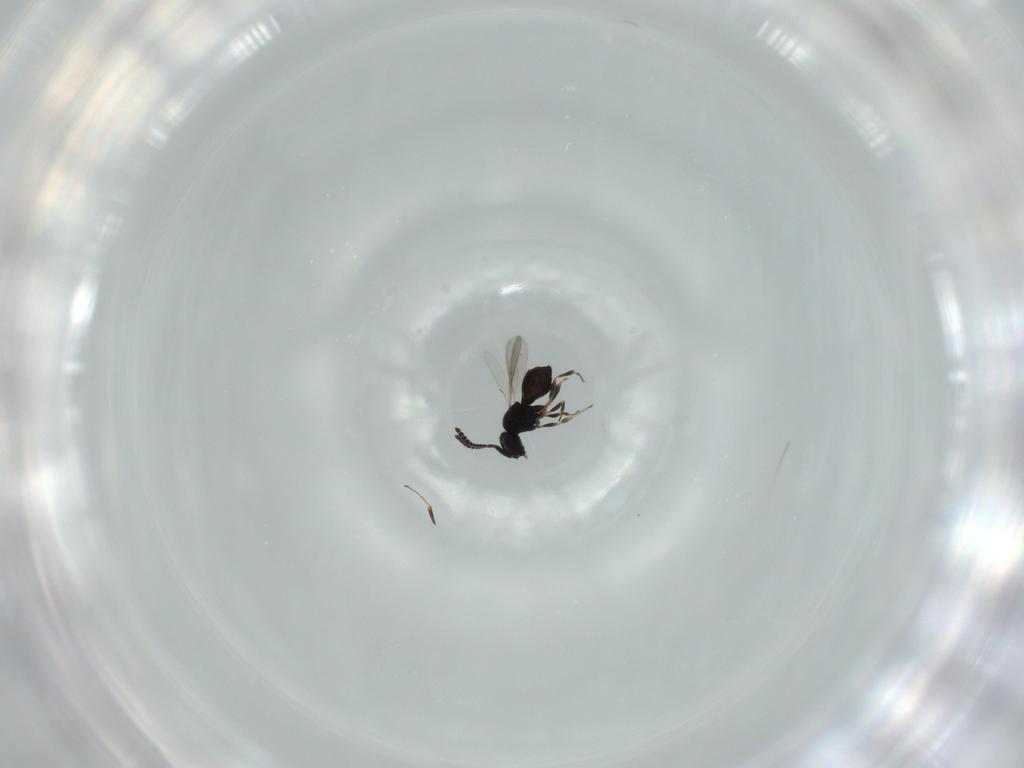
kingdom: Animalia
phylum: Arthropoda
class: Insecta
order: Hymenoptera
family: Scelionidae
